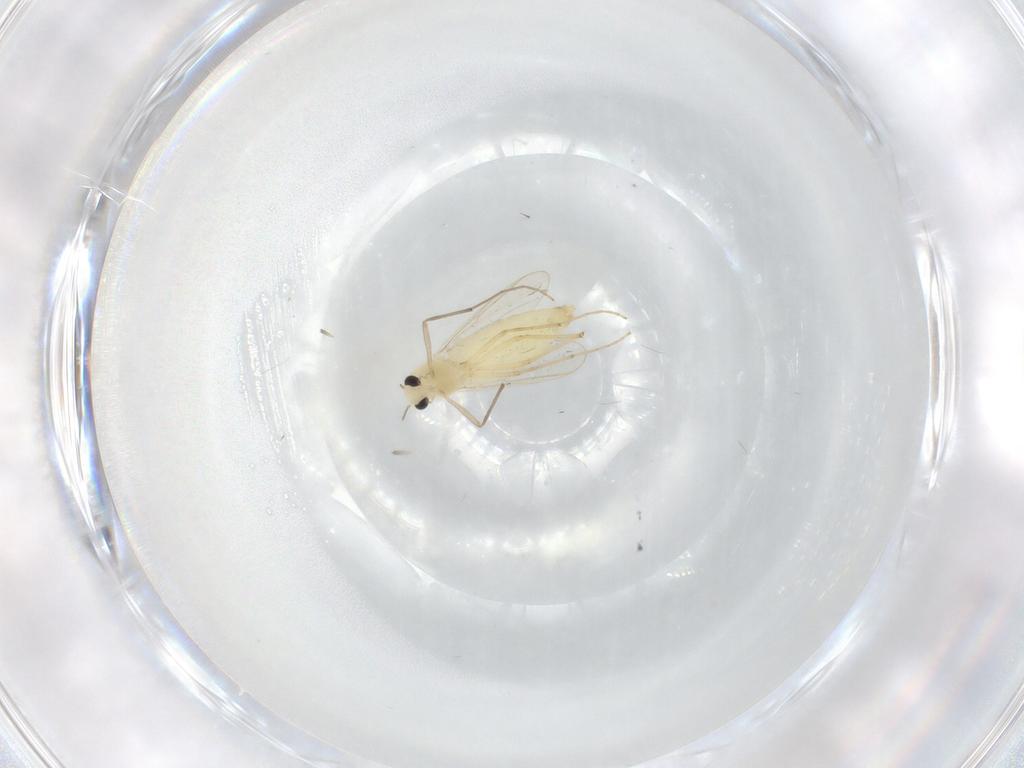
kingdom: Animalia
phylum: Arthropoda
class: Insecta
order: Diptera
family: Chironomidae
